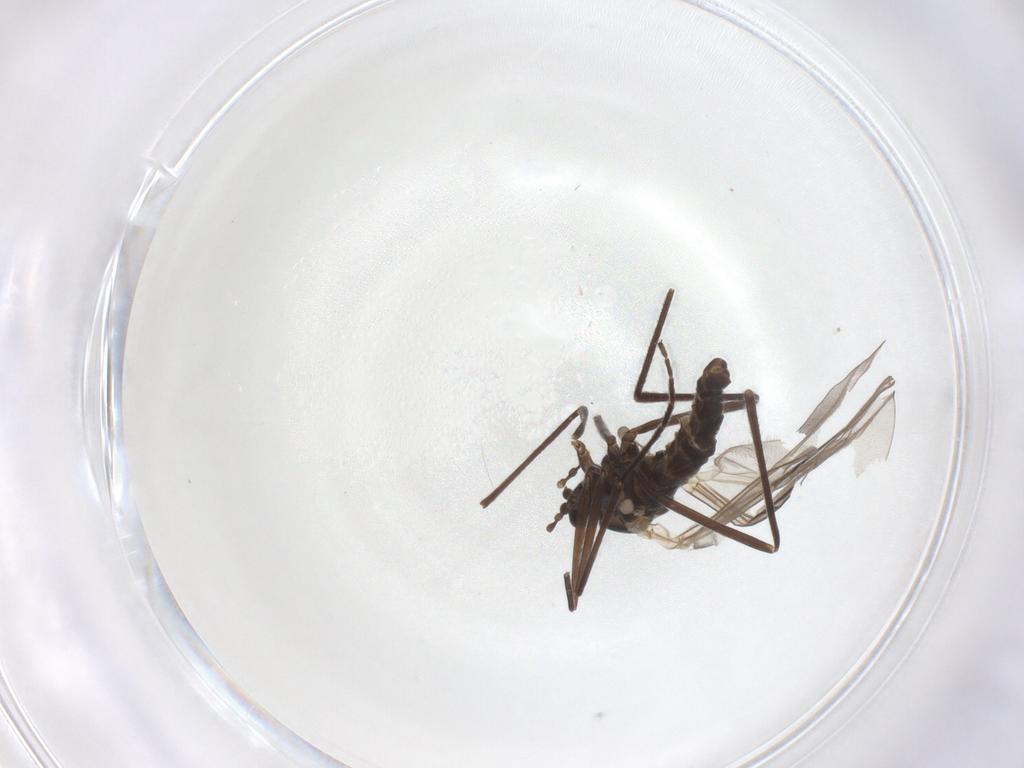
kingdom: Animalia
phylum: Arthropoda
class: Insecta
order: Diptera
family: Cecidomyiidae
